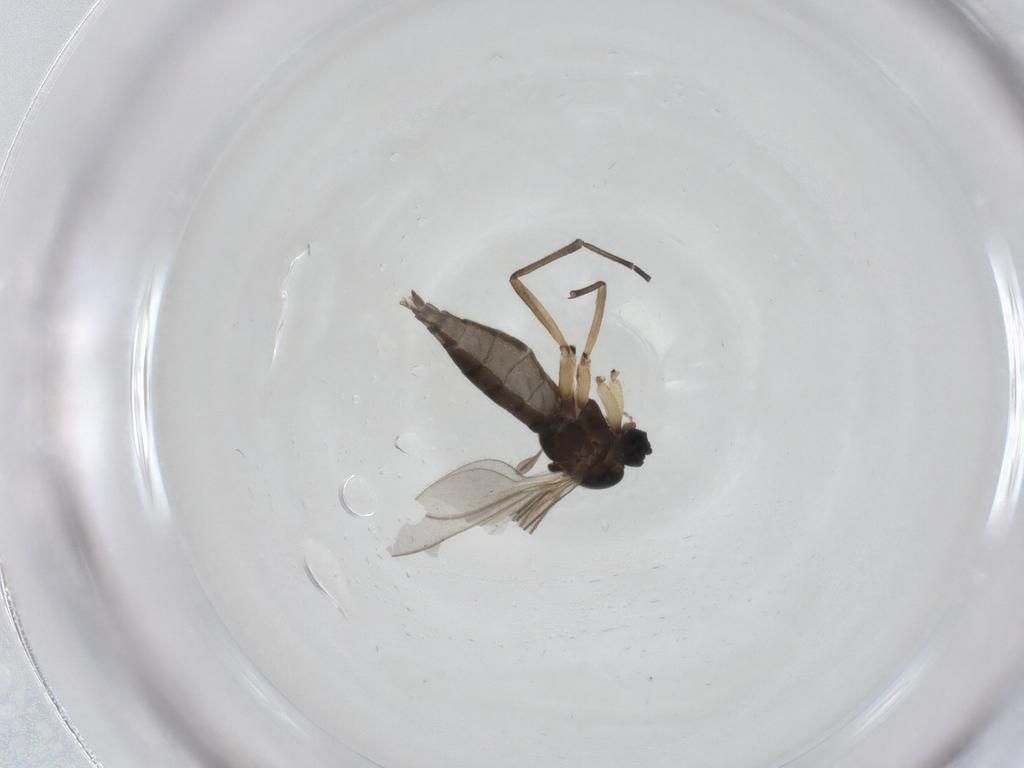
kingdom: Animalia
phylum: Arthropoda
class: Insecta
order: Diptera
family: Sciaridae
